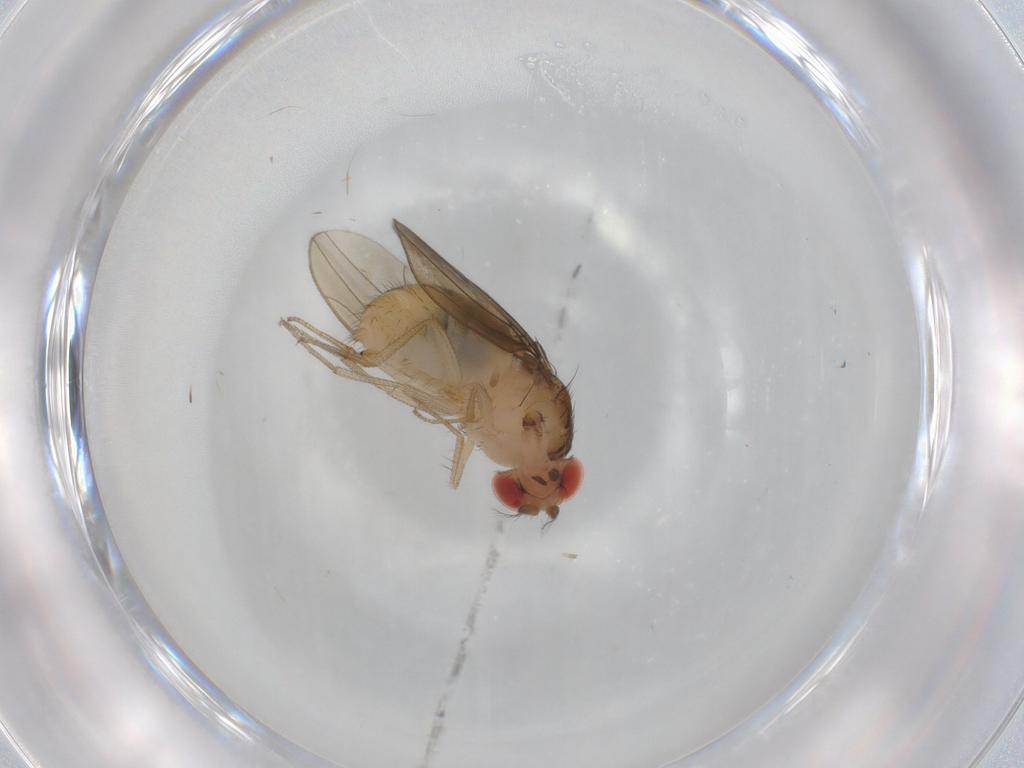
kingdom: Animalia
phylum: Arthropoda
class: Insecta
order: Diptera
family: Drosophilidae
